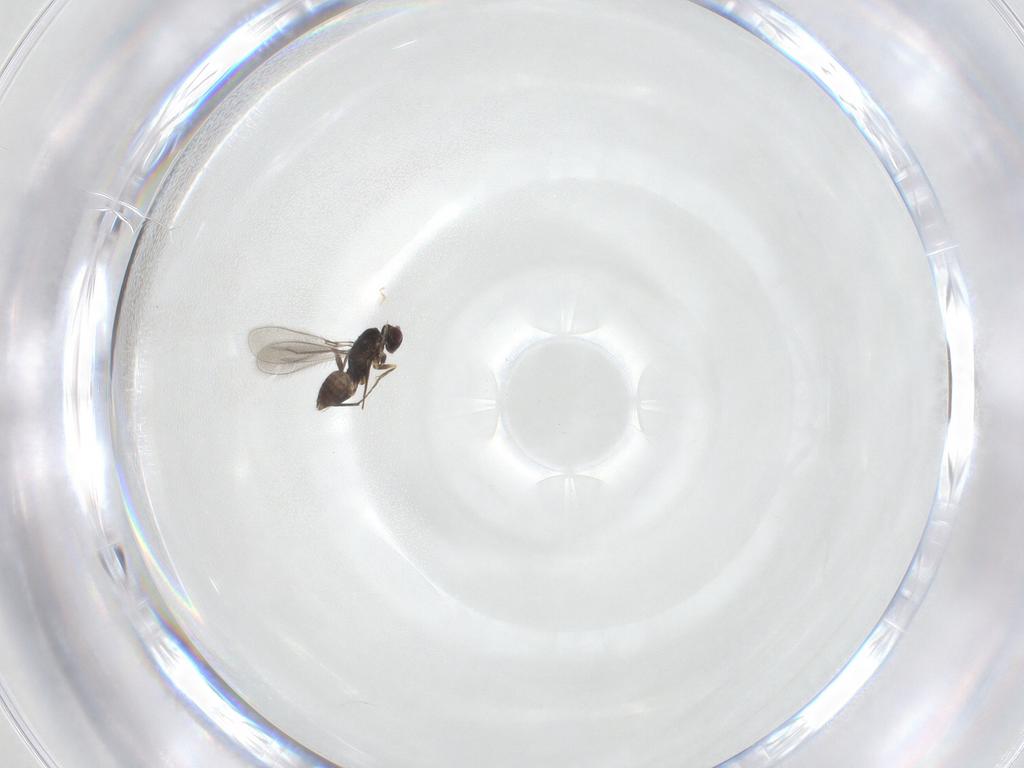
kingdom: Animalia
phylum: Arthropoda
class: Insecta
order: Hymenoptera
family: Mymaridae
